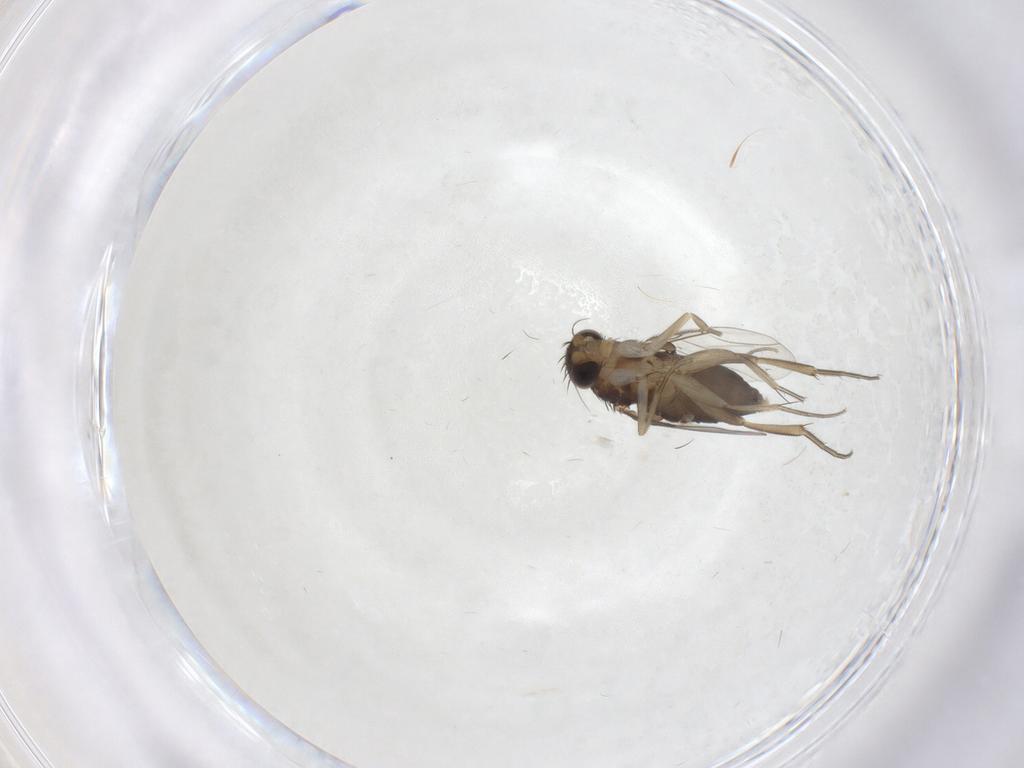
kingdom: Animalia
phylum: Arthropoda
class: Insecta
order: Diptera
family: Phoridae
